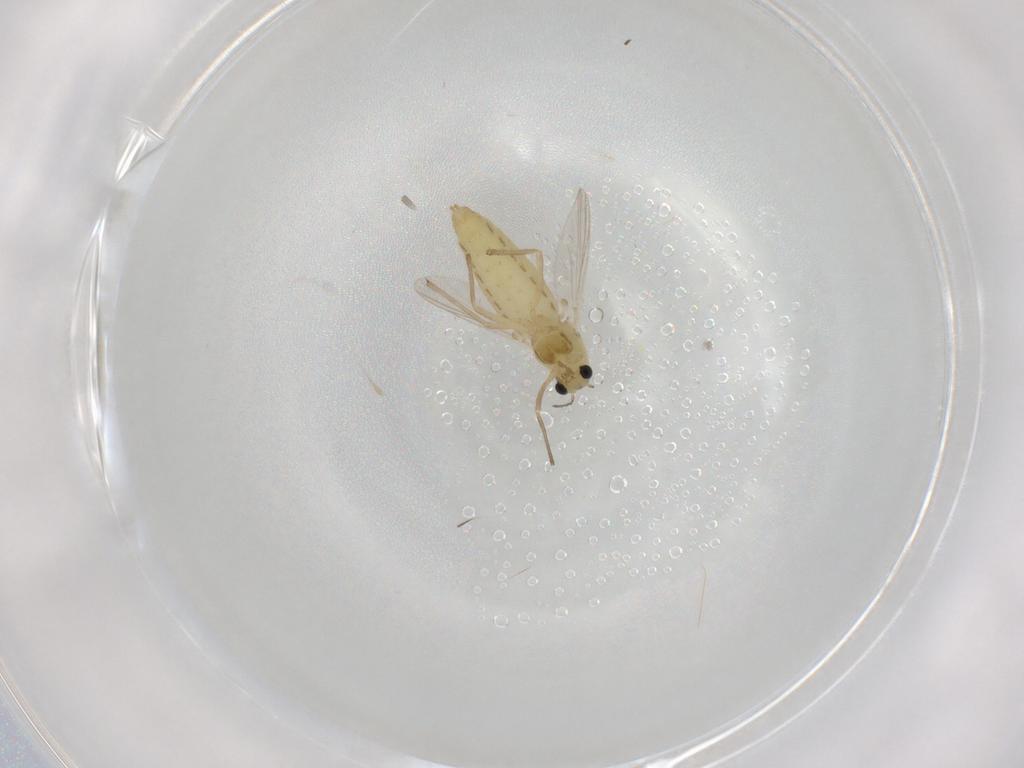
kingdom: Animalia
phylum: Arthropoda
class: Insecta
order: Diptera
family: Chironomidae
